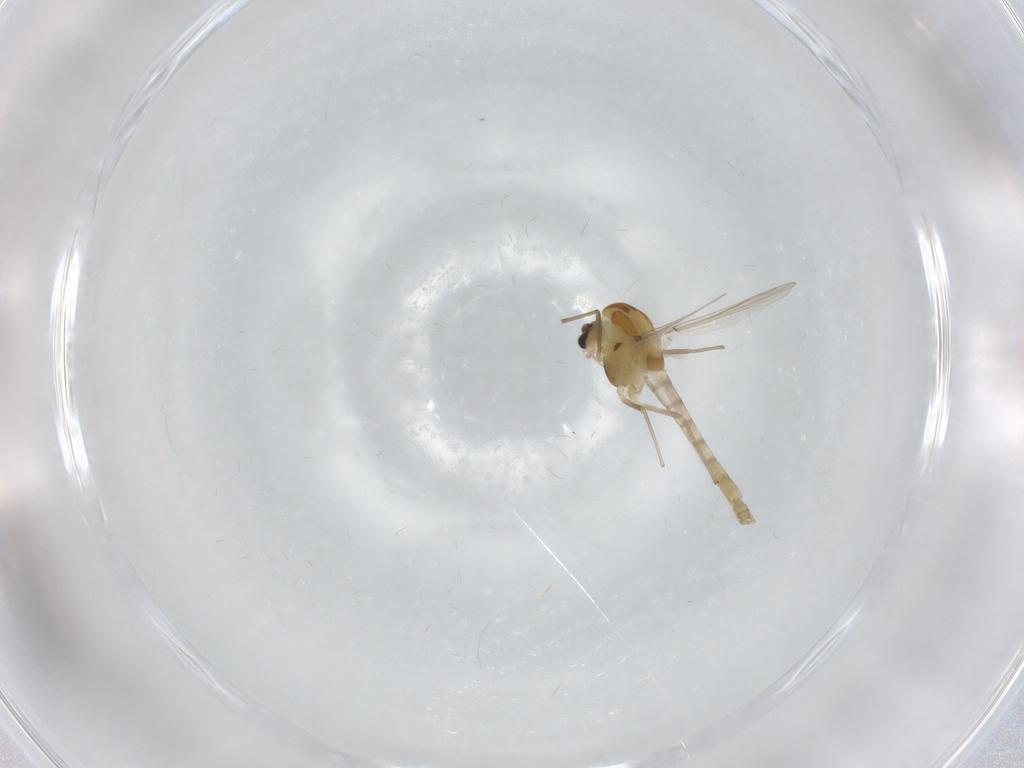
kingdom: Animalia
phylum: Arthropoda
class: Insecta
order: Diptera
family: Chironomidae
